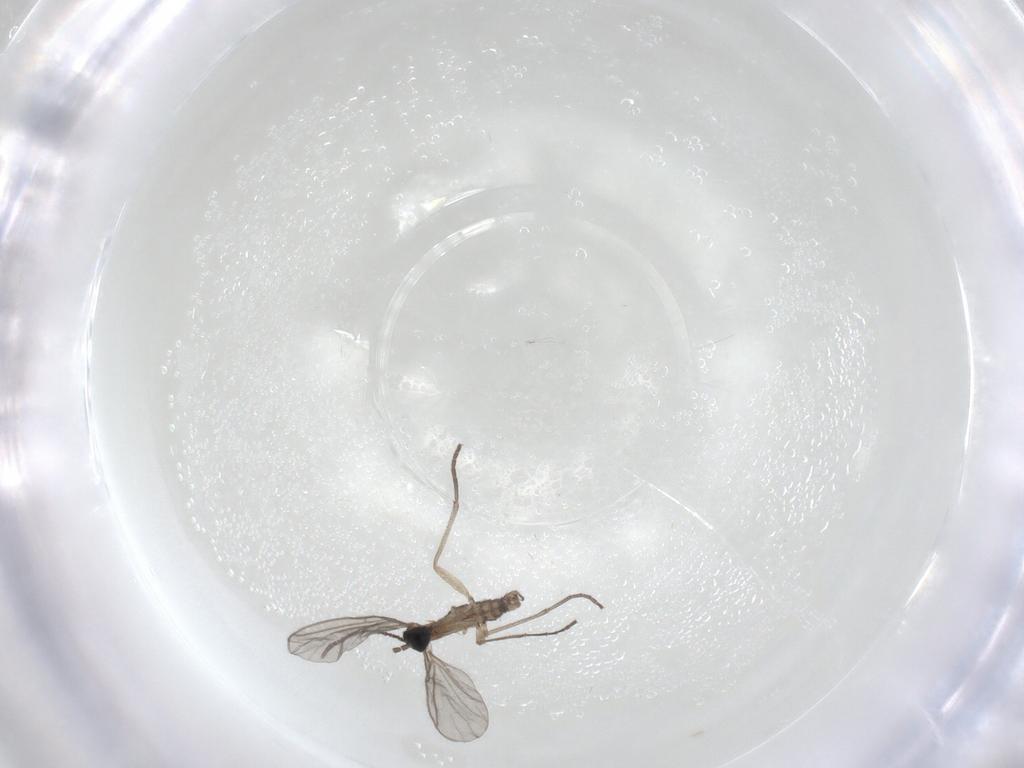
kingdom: Animalia
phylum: Arthropoda
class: Insecta
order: Diptera
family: Sciaridae
